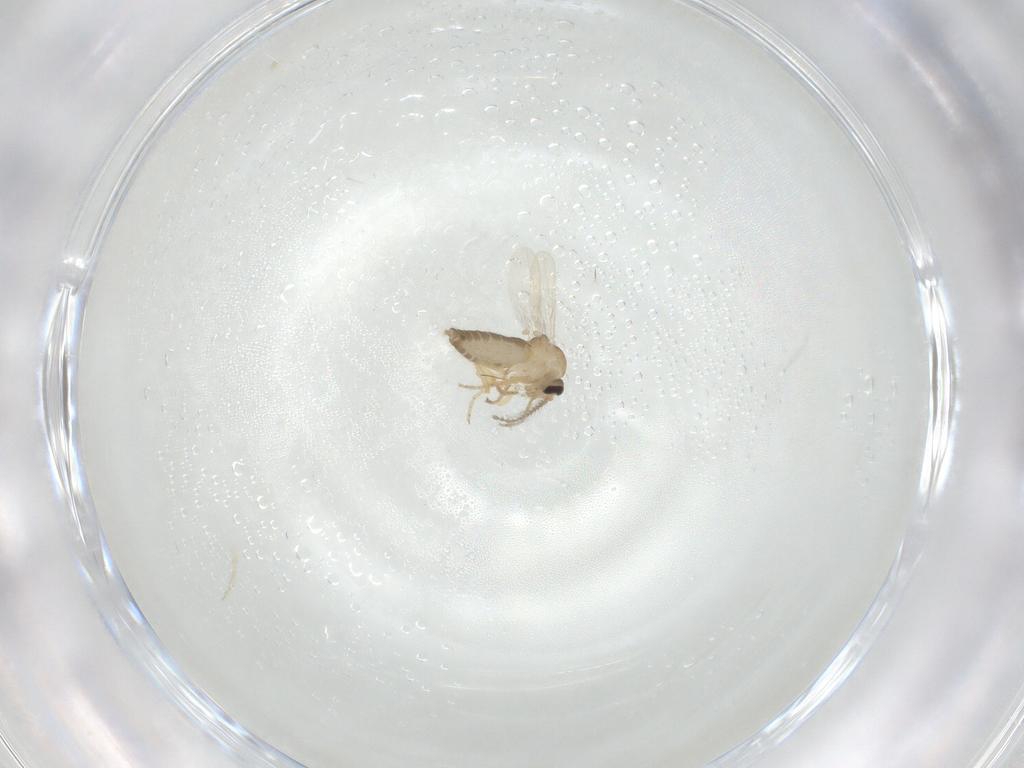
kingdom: Animalia
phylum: Arthropoda
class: Insecta
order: Diptera
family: Ceratopogonidae
